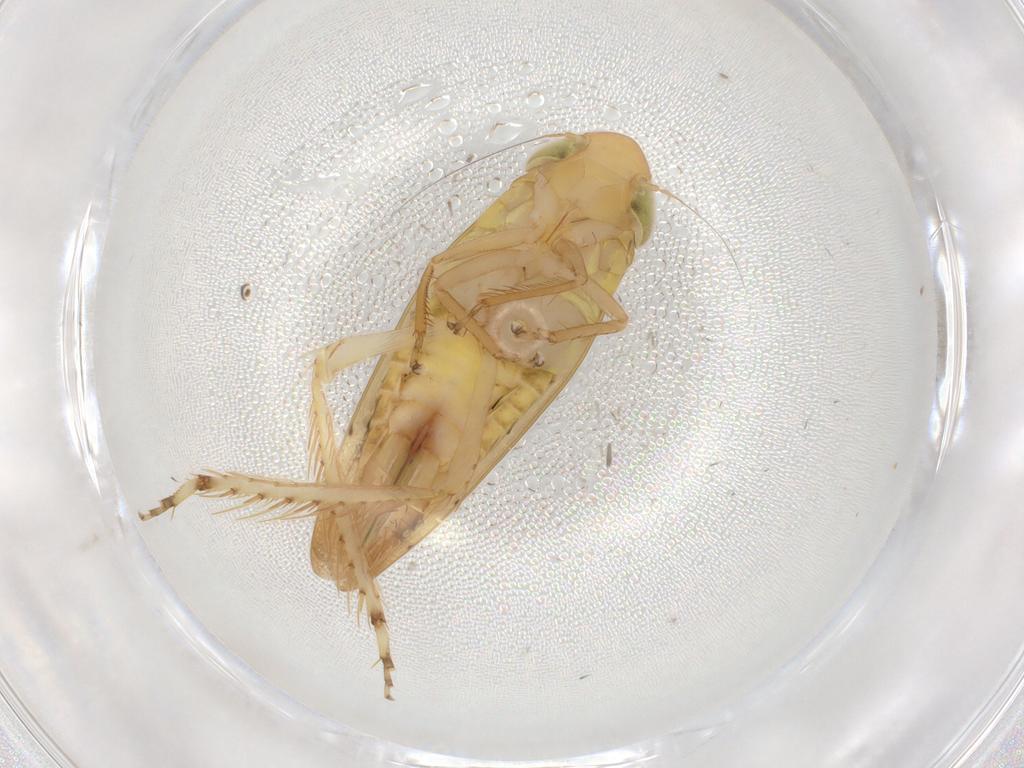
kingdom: Animalia
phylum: Arthropoda
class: Insecta
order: Hemiptera
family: Cicadellidae
